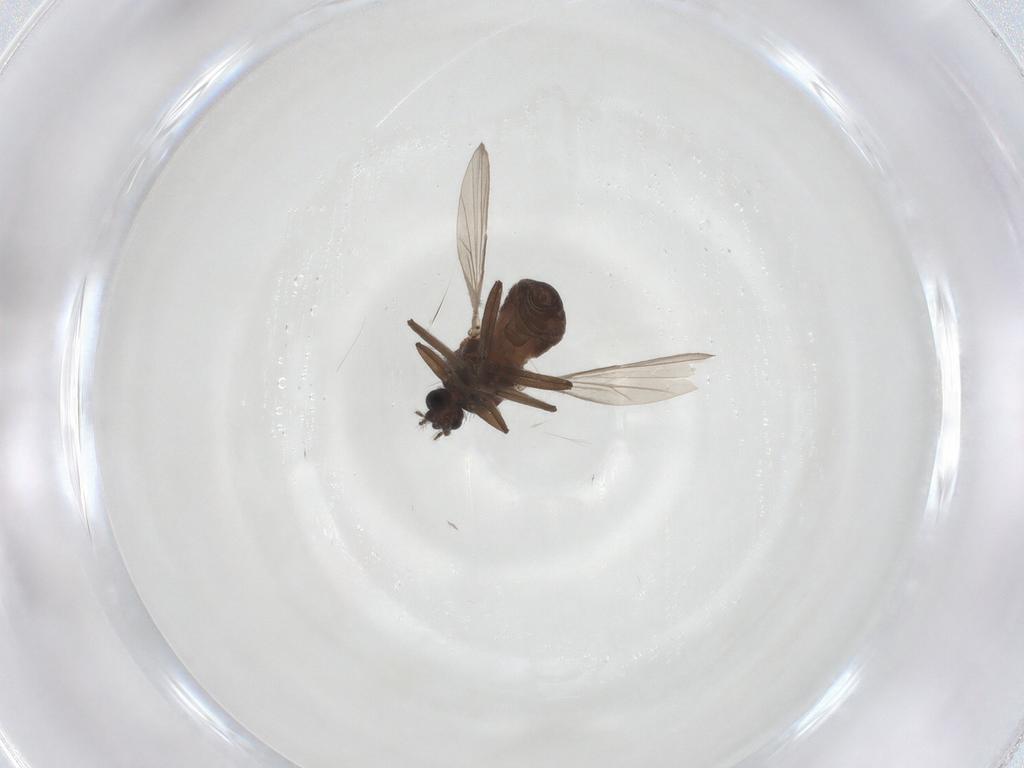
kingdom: Animalia
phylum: Arthropoda
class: Insecta
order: Diptera
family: Ceratopogonidae
